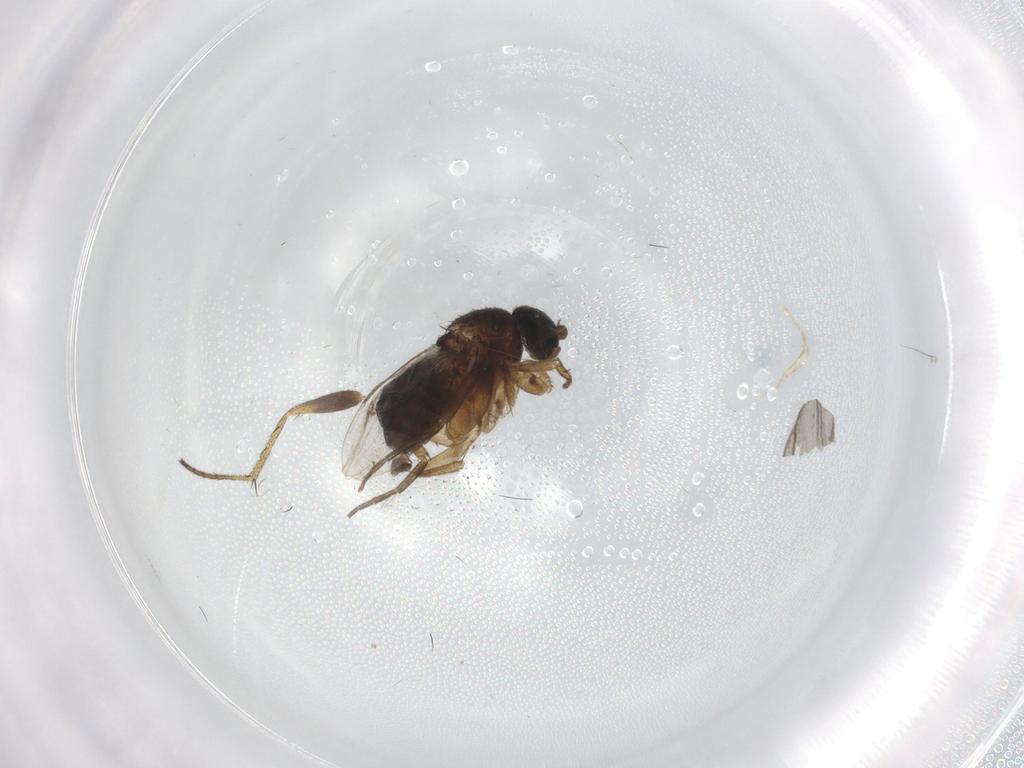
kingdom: Animalia
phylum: Arthropoda
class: Insecta
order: Diptera
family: Phoridae
